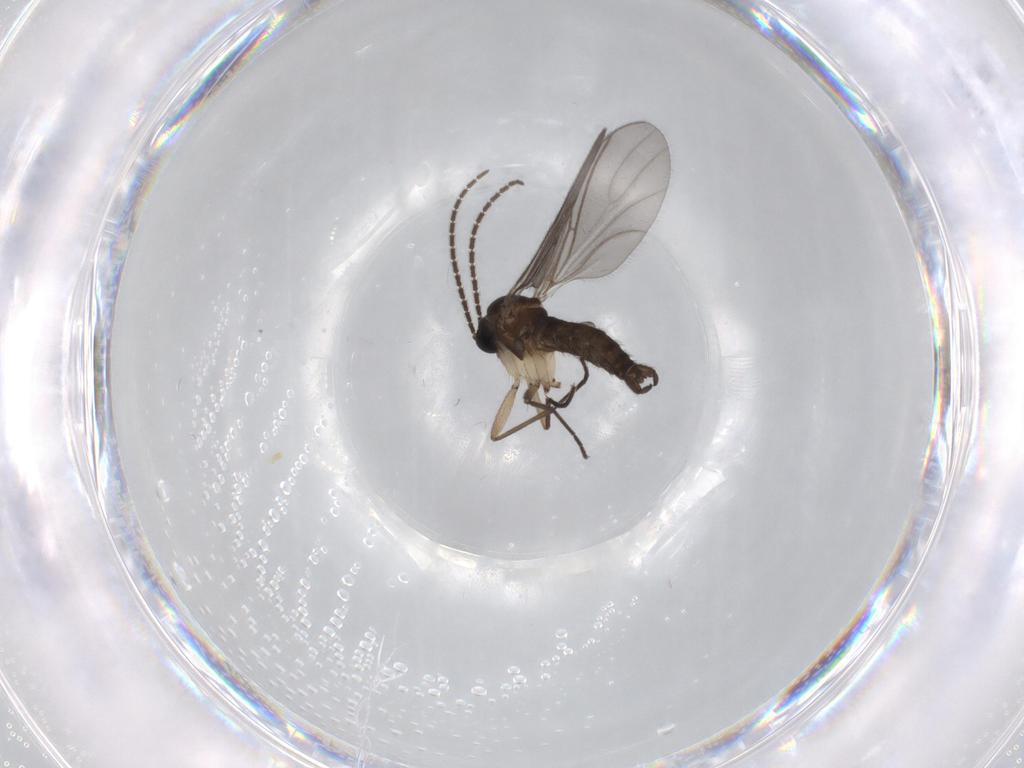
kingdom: Animalia
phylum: Arthropoda
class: Insecta
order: Diptera
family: Sciaridae
